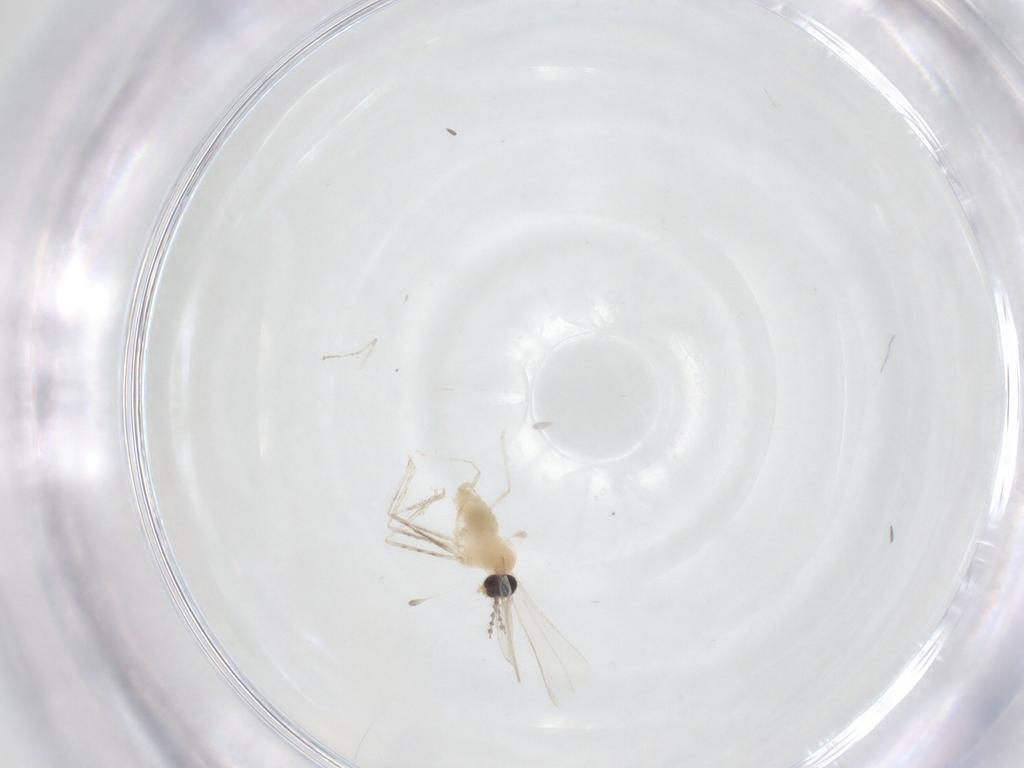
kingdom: Animalia
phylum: Arthropoda
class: Insecta
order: Diptera
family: Cecidomyiidae
